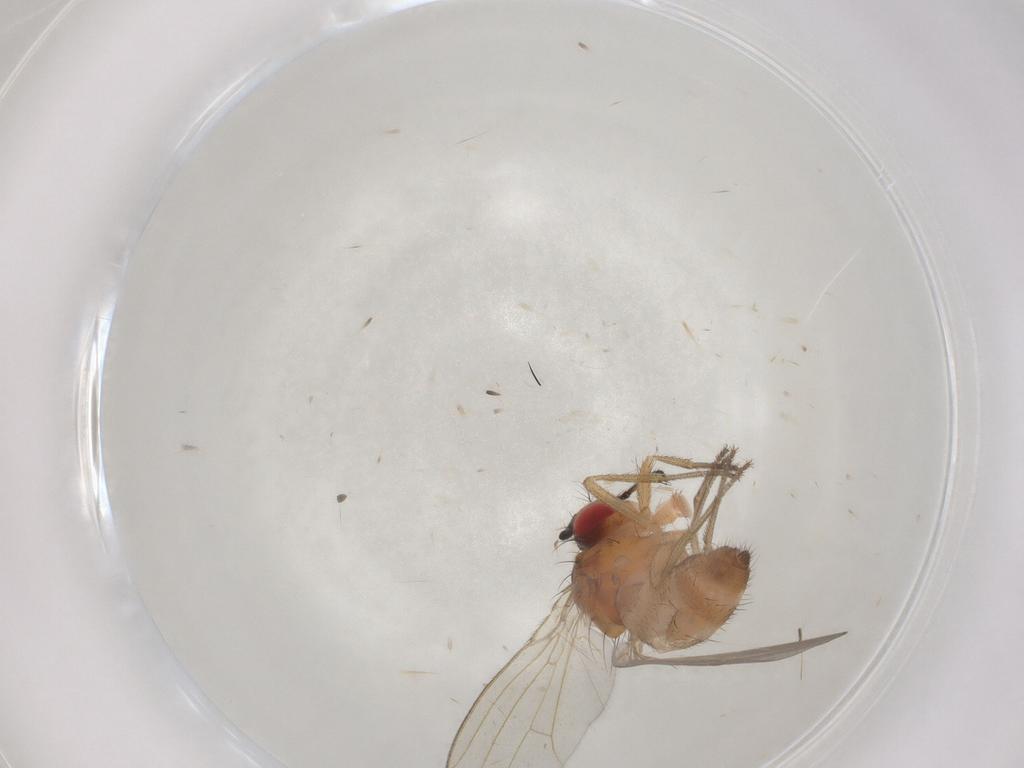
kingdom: Animalia
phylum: Arthropoda
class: Insecta
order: Diptera
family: Drosophilidae
